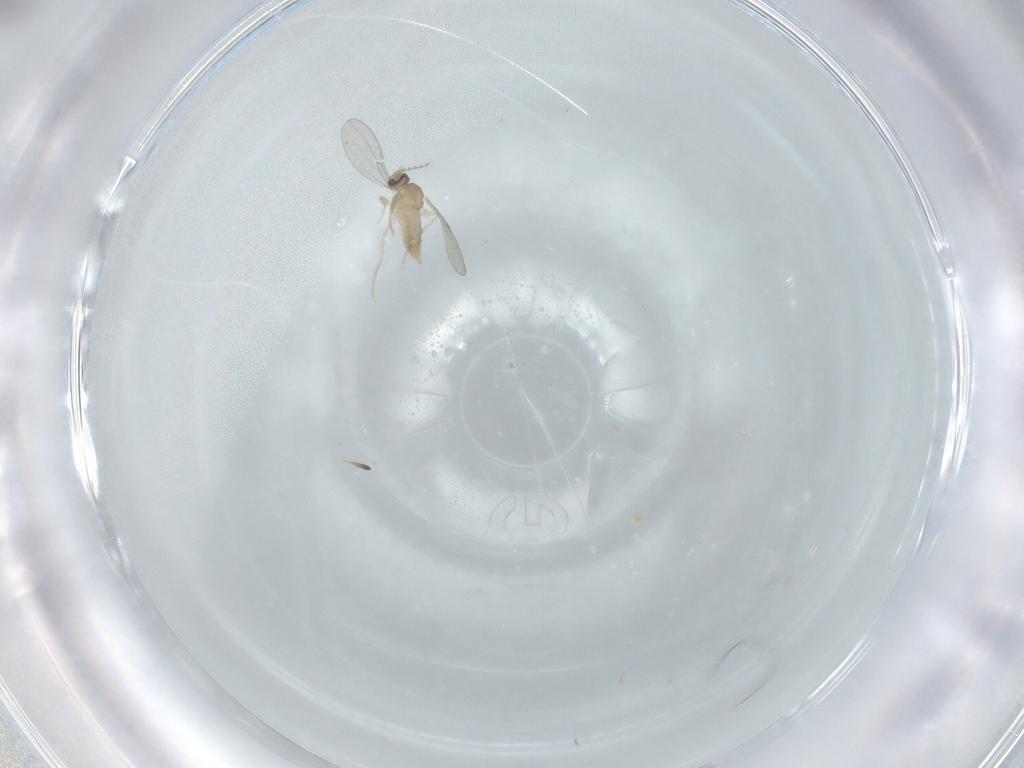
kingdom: Animalia
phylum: Arthropoda
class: Insecta
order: Diptera
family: Cecidomyiidae
